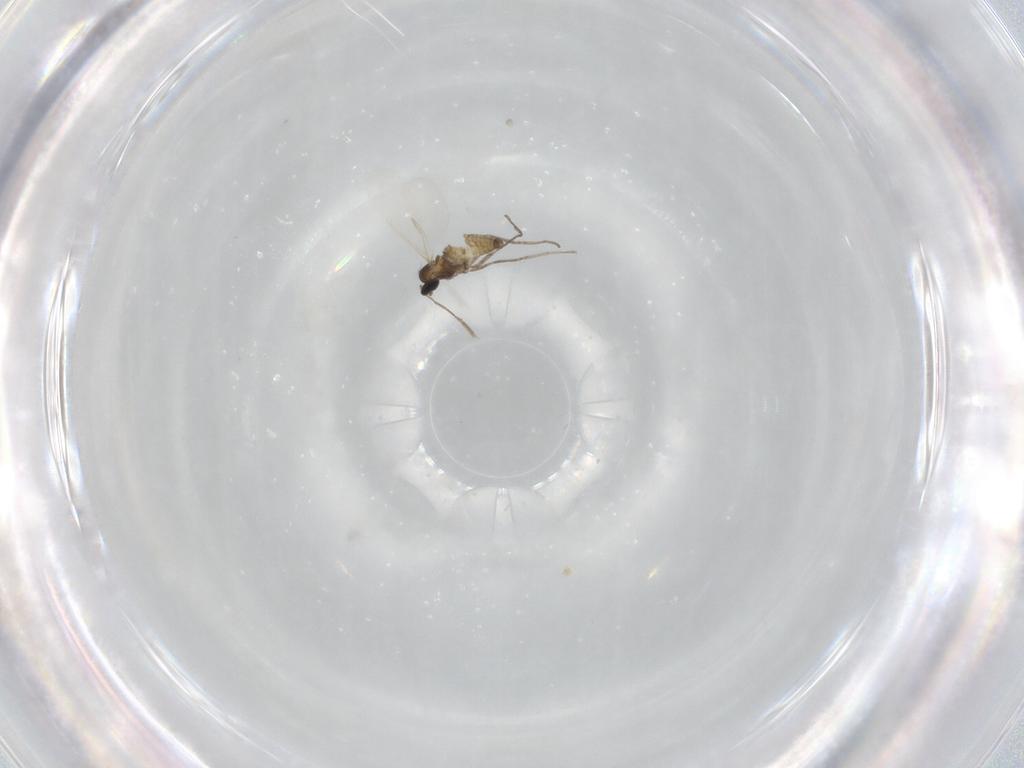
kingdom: Animalia
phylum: Arthropoda
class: Insecta
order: Diptera
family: Cecidomyiidae
